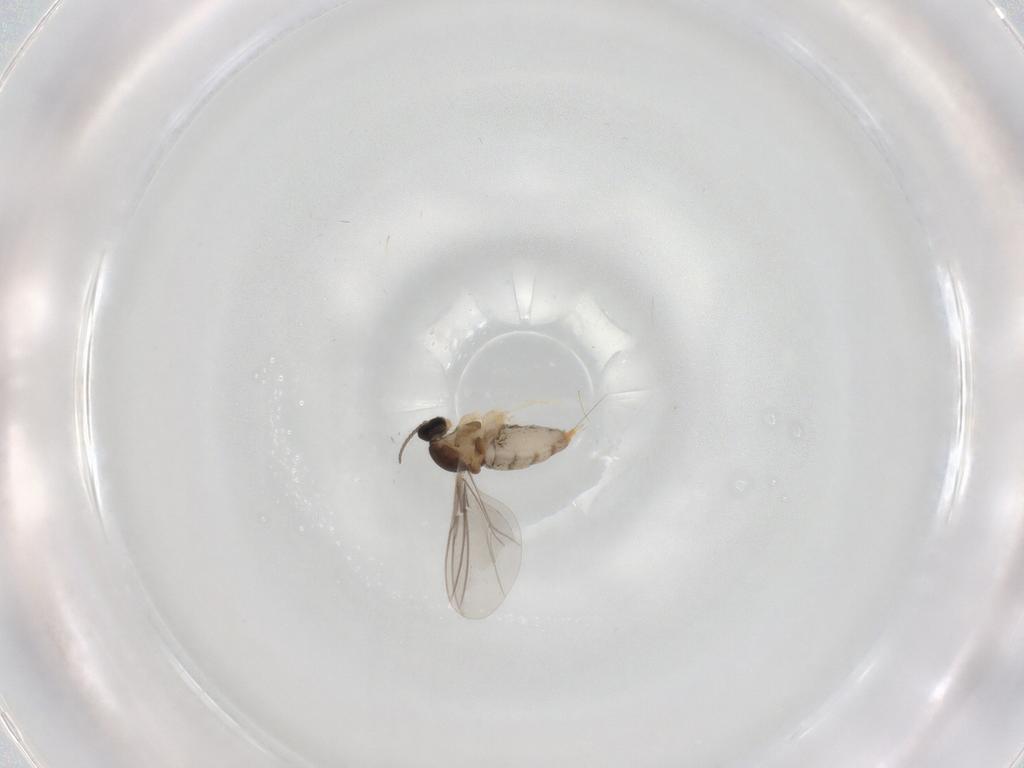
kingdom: Animalia
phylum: Arthropoda
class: Insecta
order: Diptera
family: Cecidomyiidae
